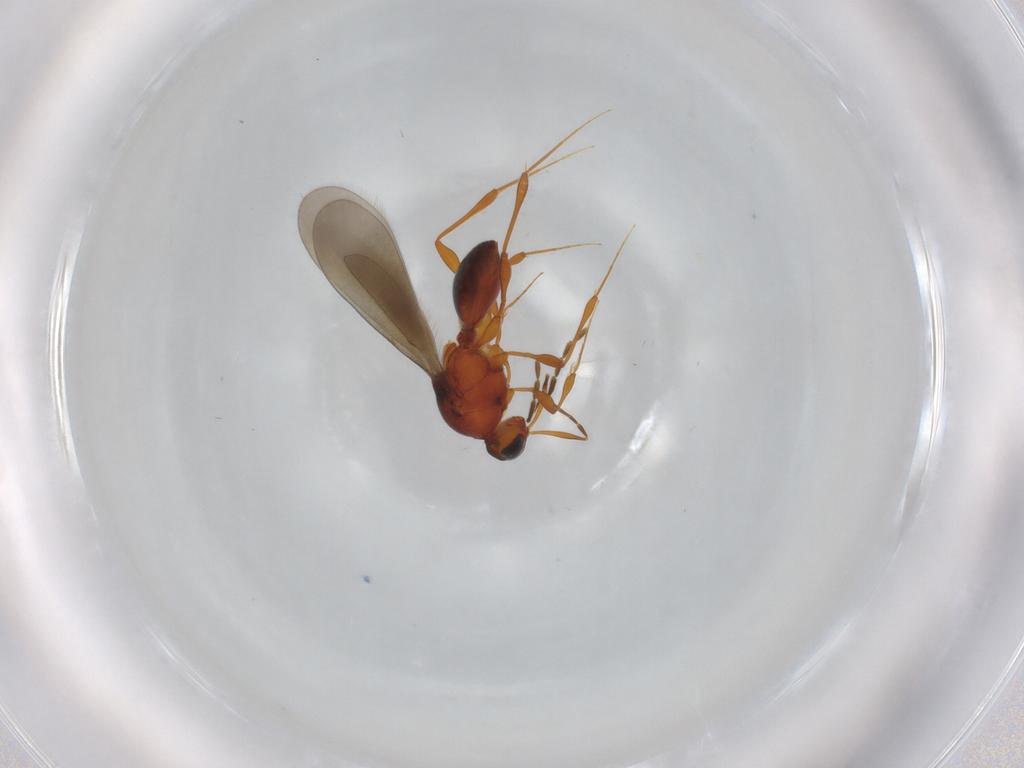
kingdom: Animalia
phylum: Arthropoda
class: Insecta
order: Hymenoptera
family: Platygastridae
